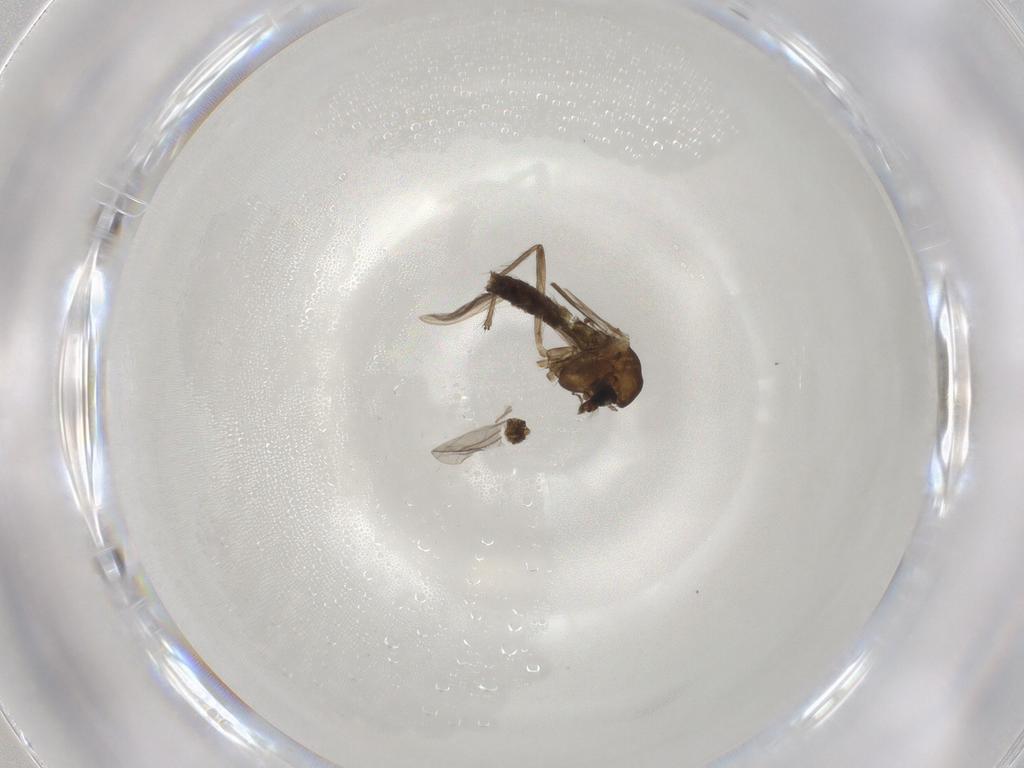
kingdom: Animalia
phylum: Arthropoda
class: Insecta
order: Diptera
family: Chironomidae
